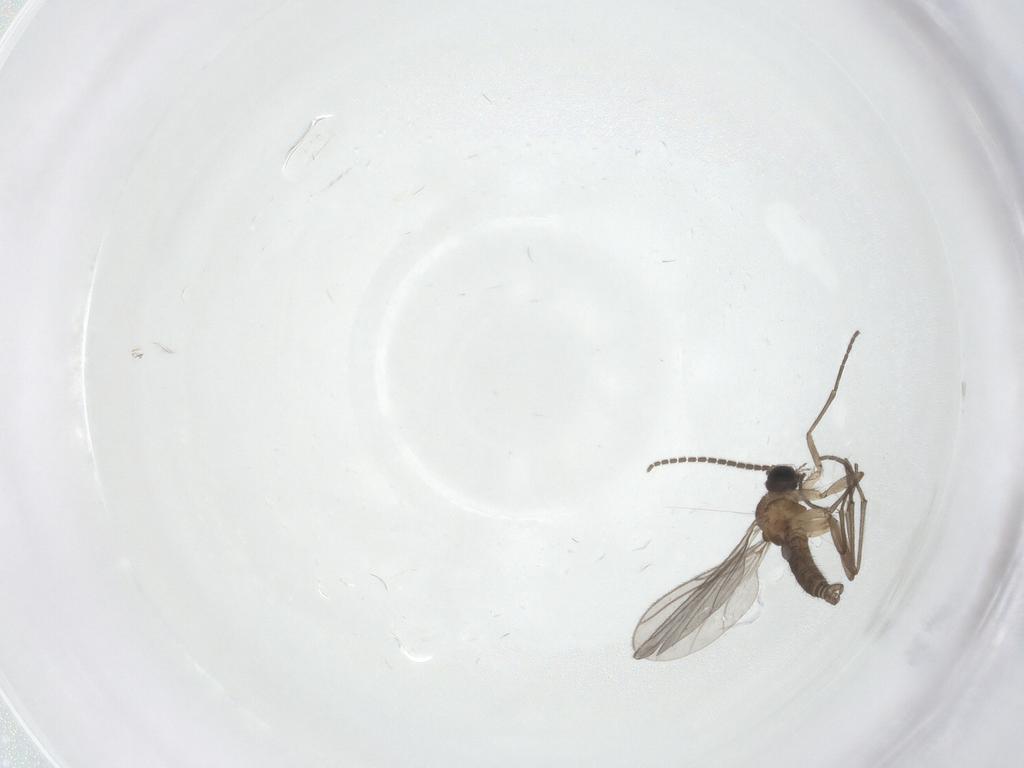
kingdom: Animalia
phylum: Arthropoda
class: Insecta
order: Diptera
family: Sciaridae
